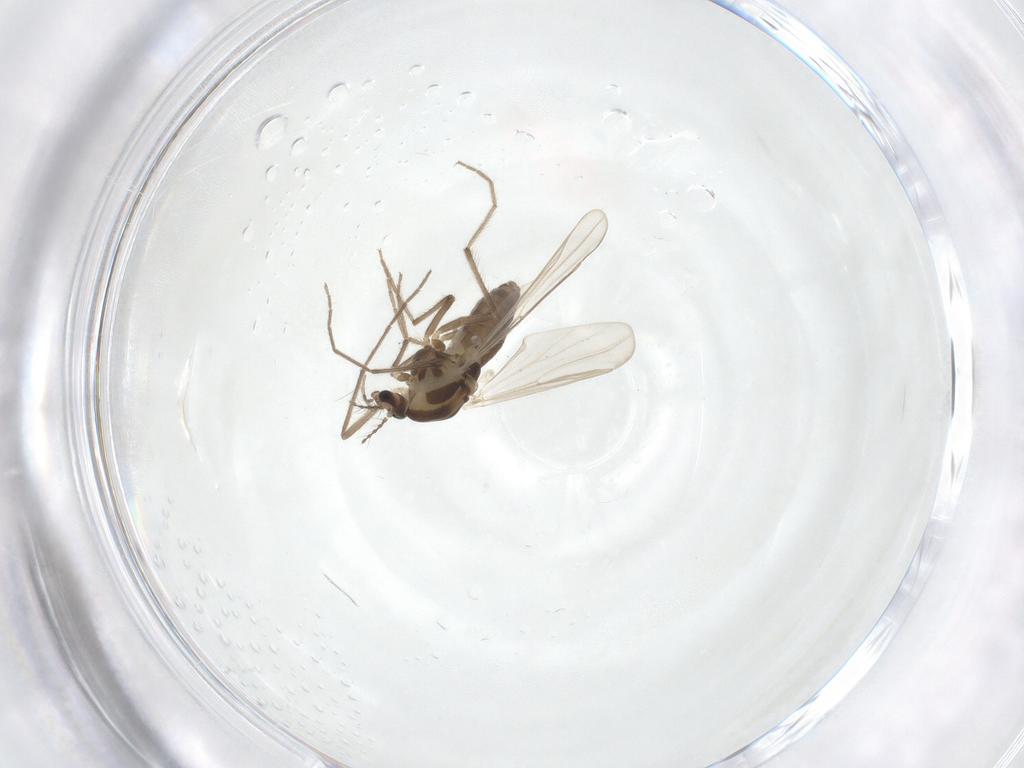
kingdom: Animalia
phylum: Arthropoda
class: Insecta
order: Diptera
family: Chironomidae
